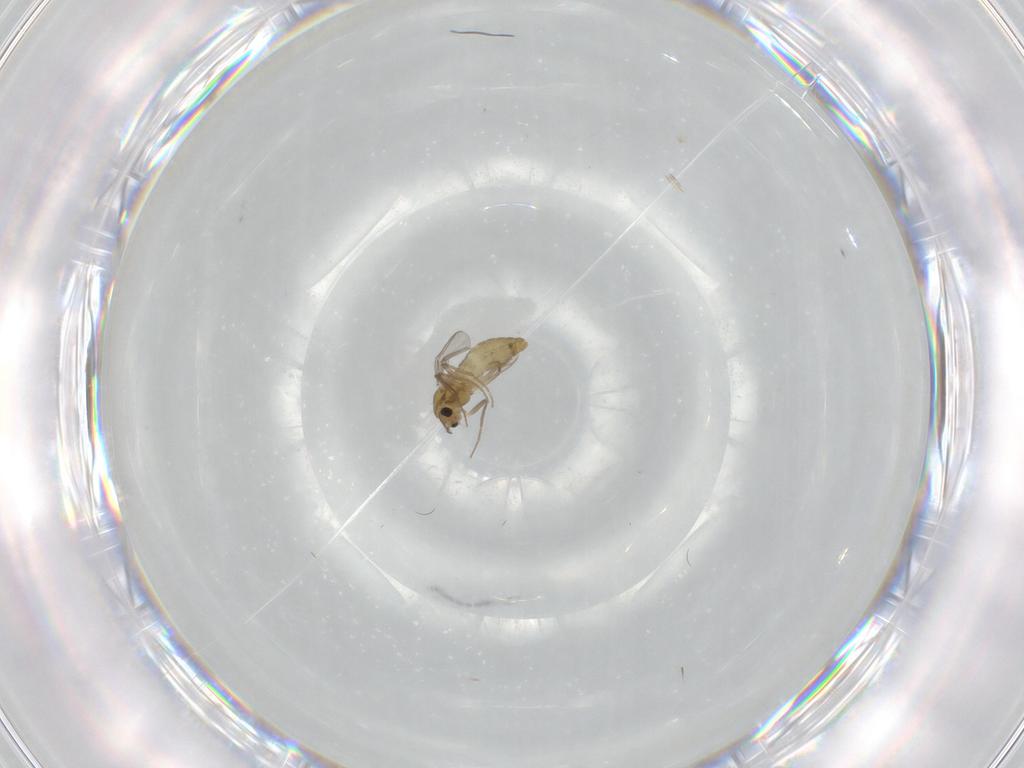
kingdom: Animalia
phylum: Arthropoda
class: Insecta
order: Diptera
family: Chironomidae
